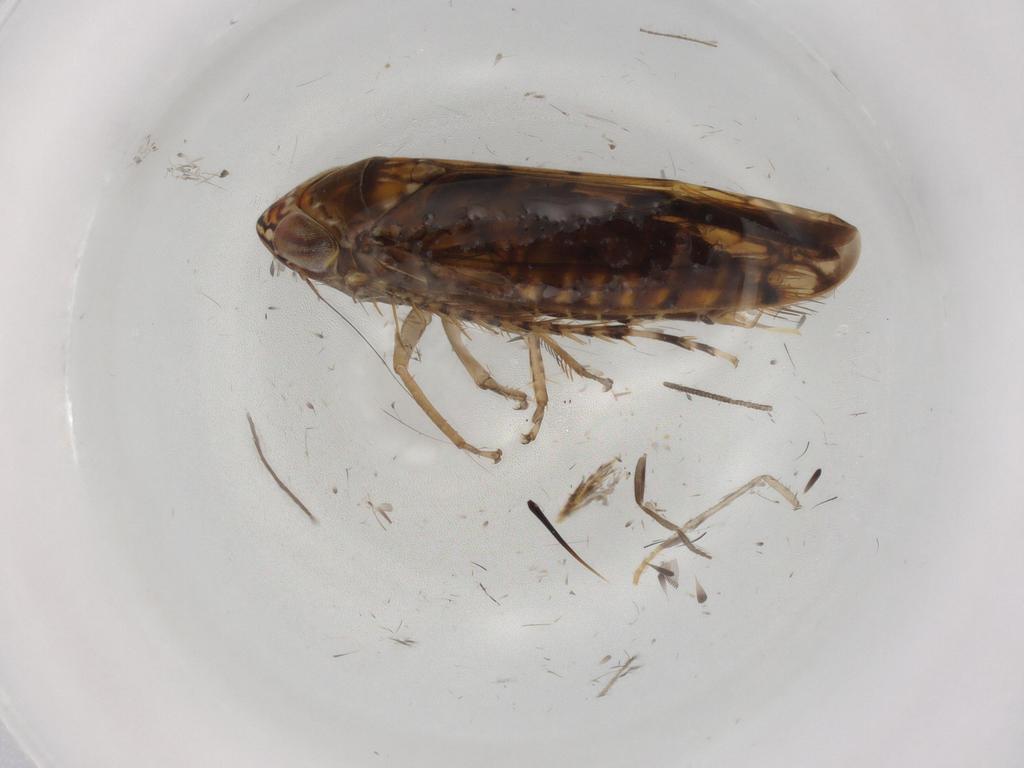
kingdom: Animalia
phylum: Arthropoda
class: Insecta
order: Hemiptera
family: Cicadellidae
